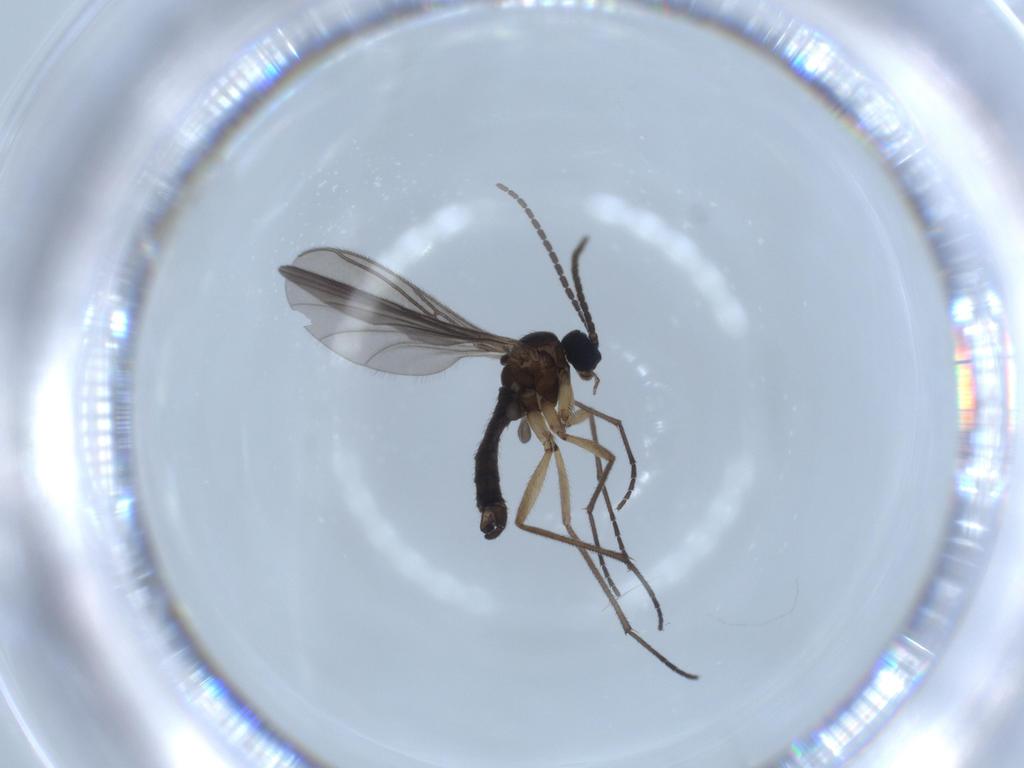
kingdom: Animalia
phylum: Arthropoda
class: Insecta
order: Diptera
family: Sciaridae
